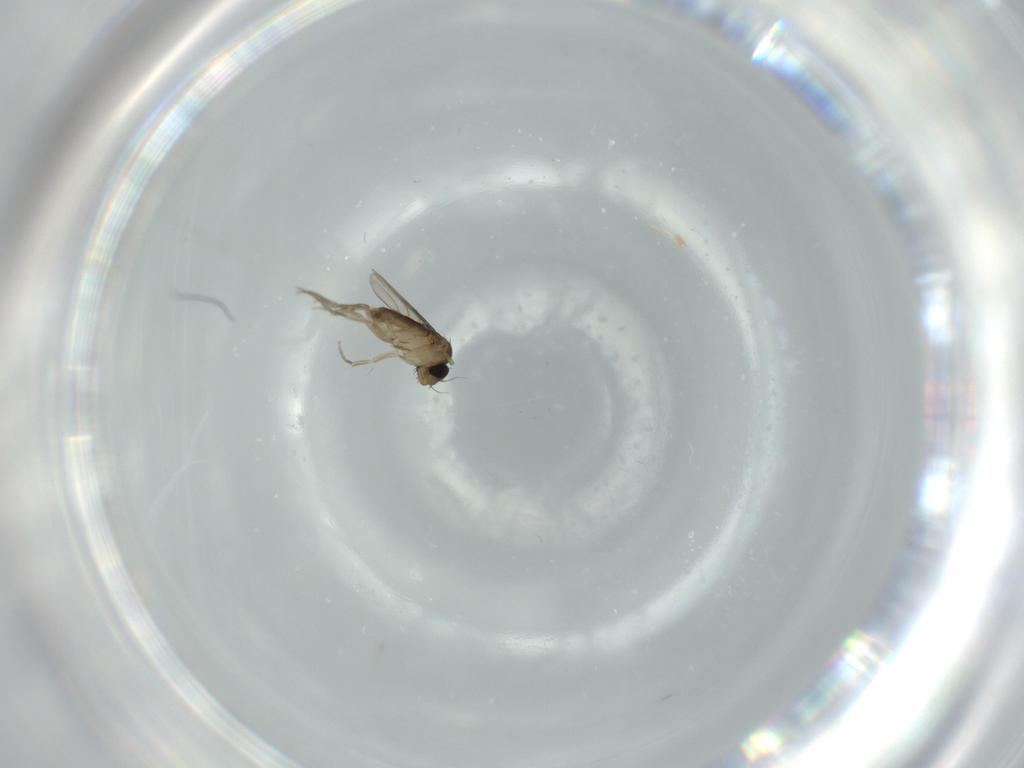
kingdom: Animalia
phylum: Arthropoda
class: Insecta
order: Diptera
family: Phoridae
